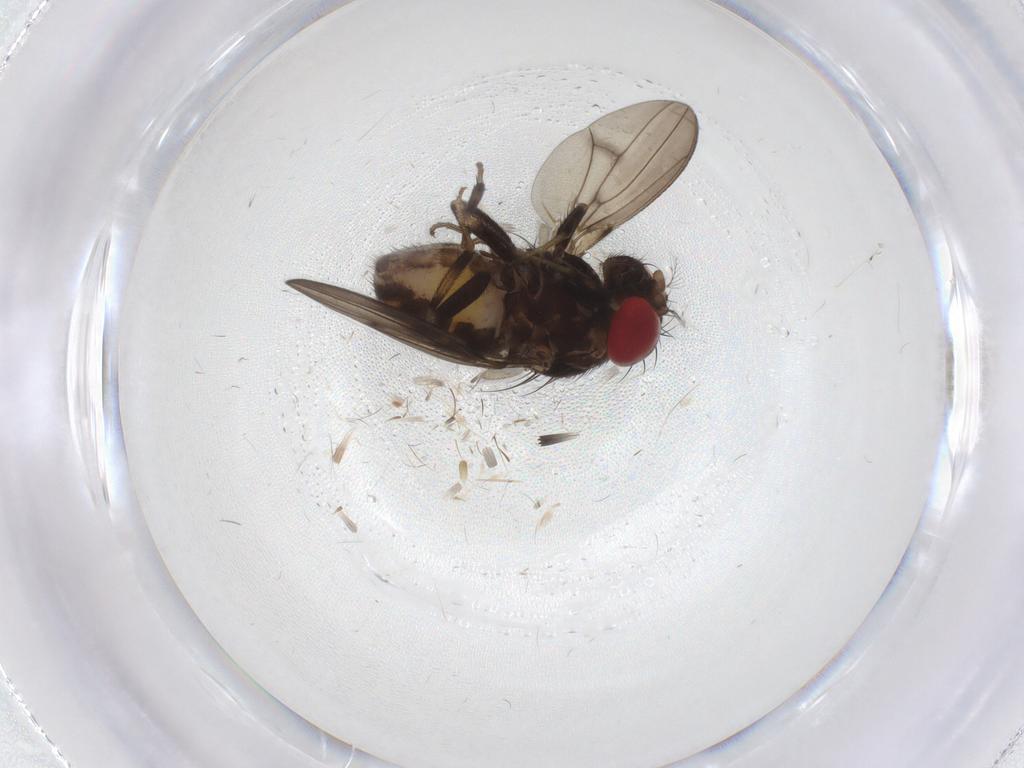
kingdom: Animalia
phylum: Arthropoda
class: Insecta
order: Diptera
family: Drosophilidae
